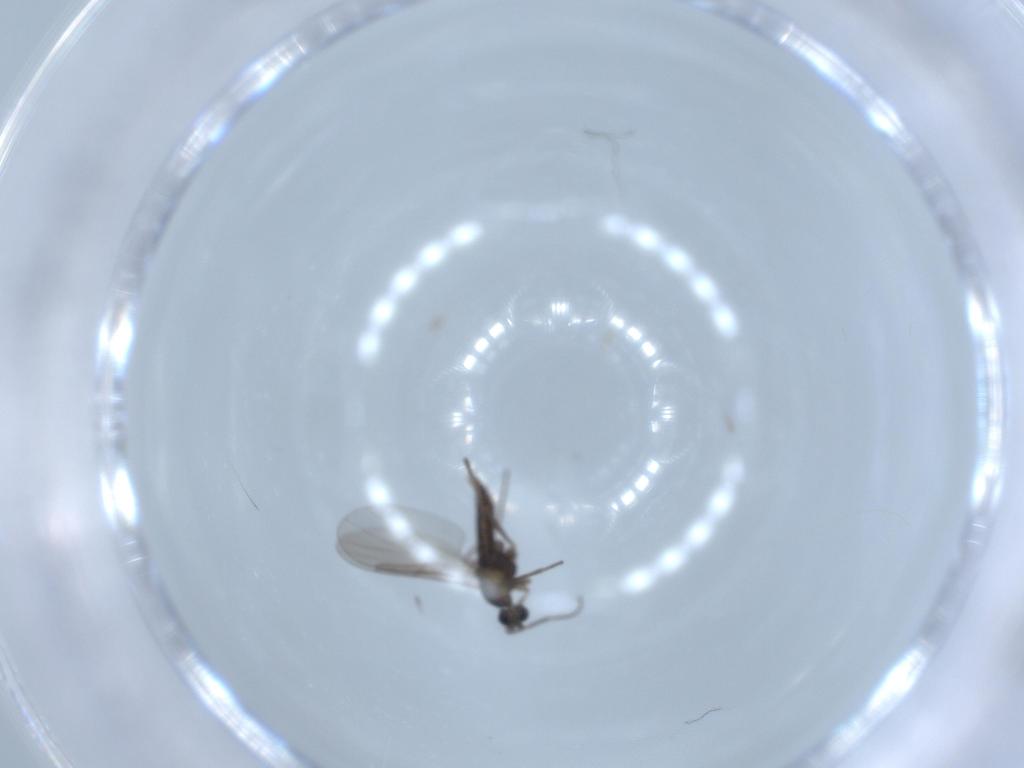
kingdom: Animalia
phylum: Arthropoda
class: Insecta
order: Diptera
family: Cecidomyiidae
